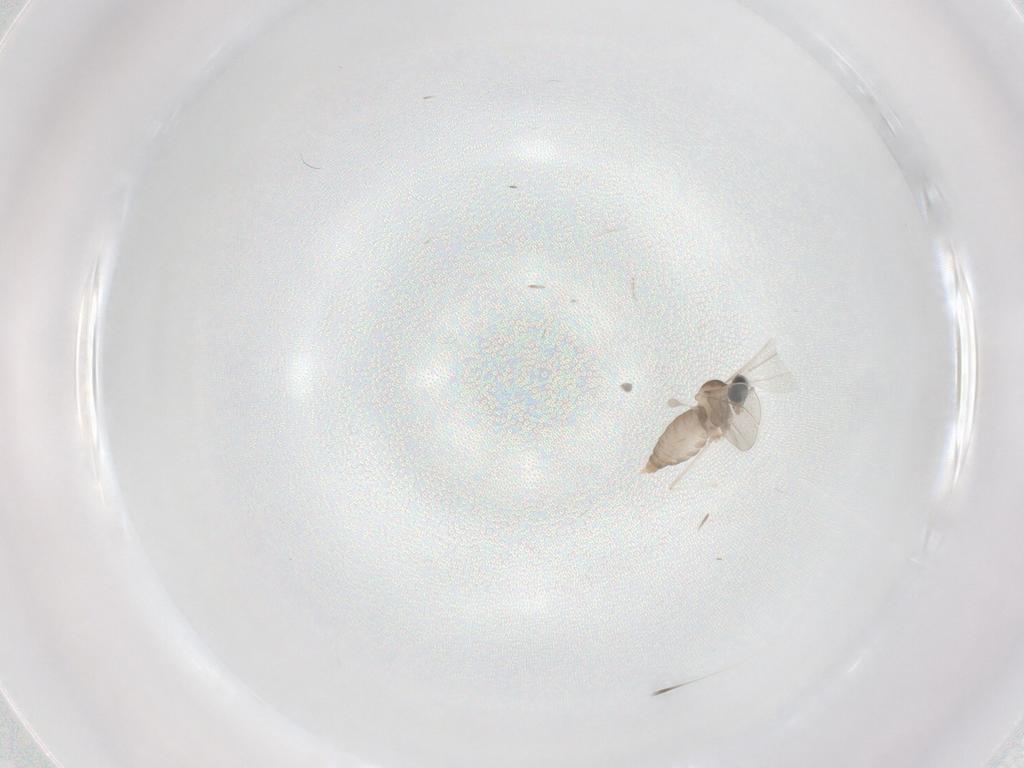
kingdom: Animalia
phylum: Arthropoda
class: Insecta
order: Diptera
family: Cecidomyiidae
